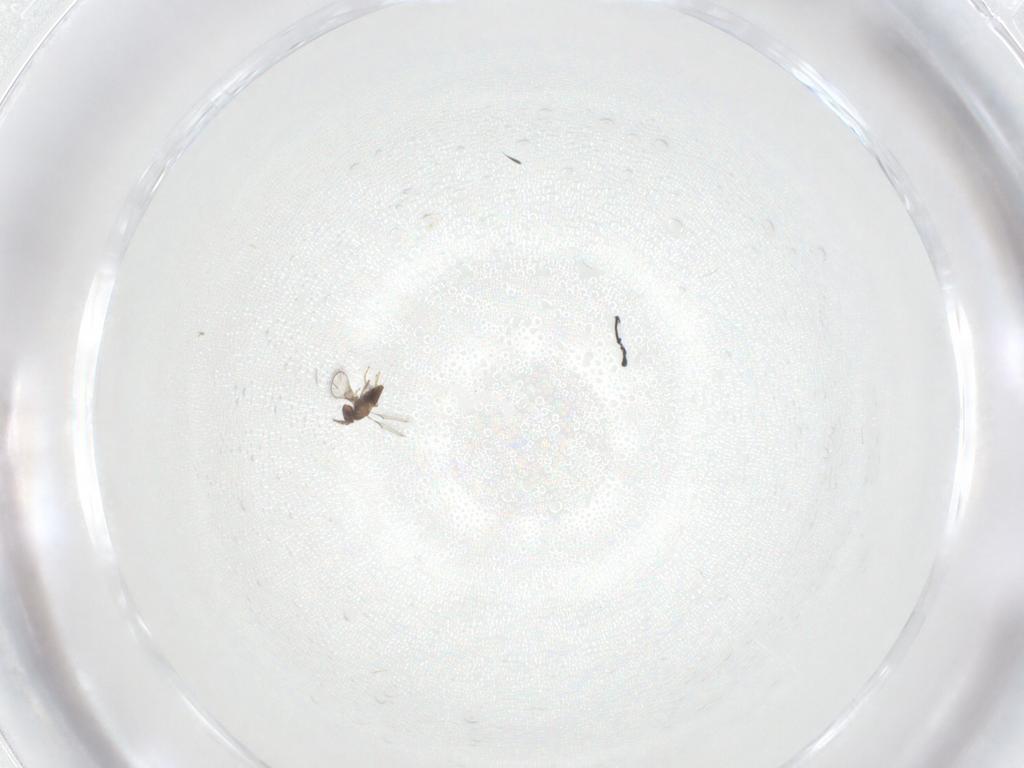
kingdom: Animalia
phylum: Arthropoda
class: Insecta
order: Hymenoptera
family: Trichogrammatidae
